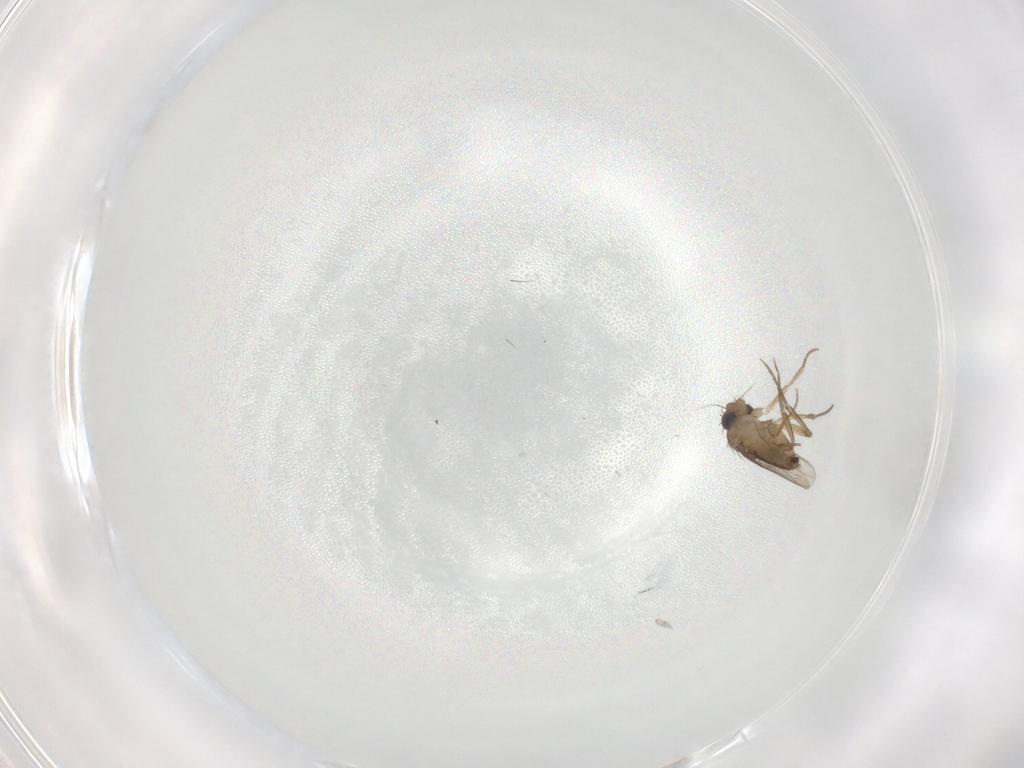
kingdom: Animalia
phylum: Arthropoda
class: Insecta
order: Diptera
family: Phoridae
